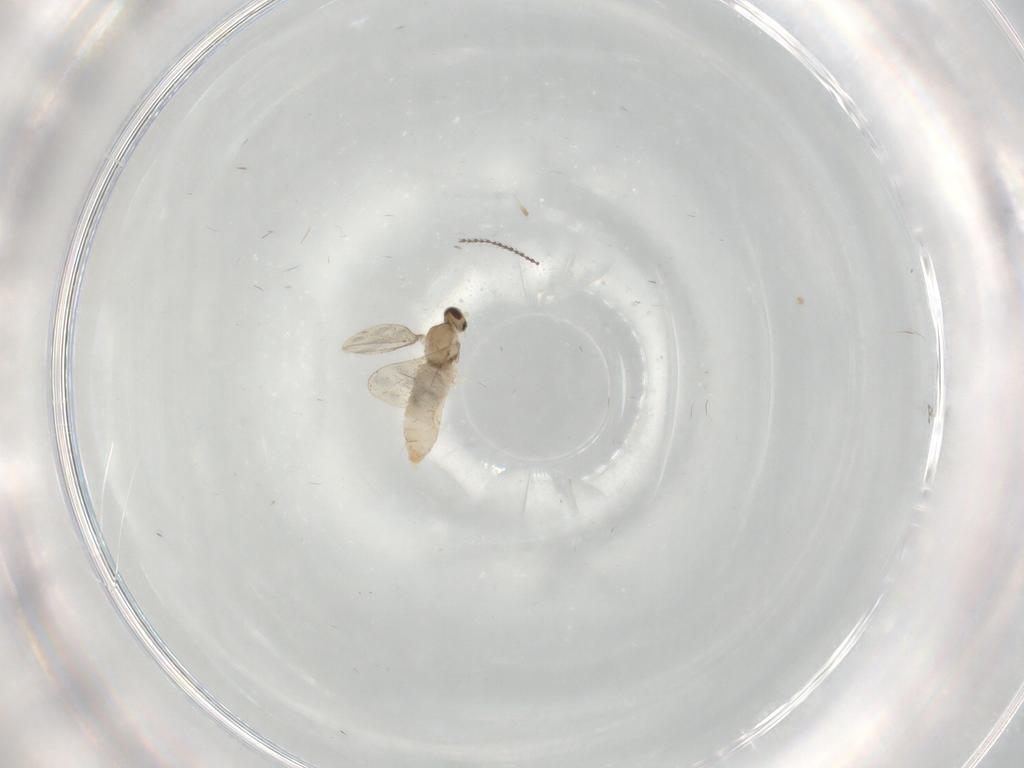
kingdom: Animalia
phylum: Arthropoda
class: Insecta
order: Diptera
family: Cecidomyiidae
